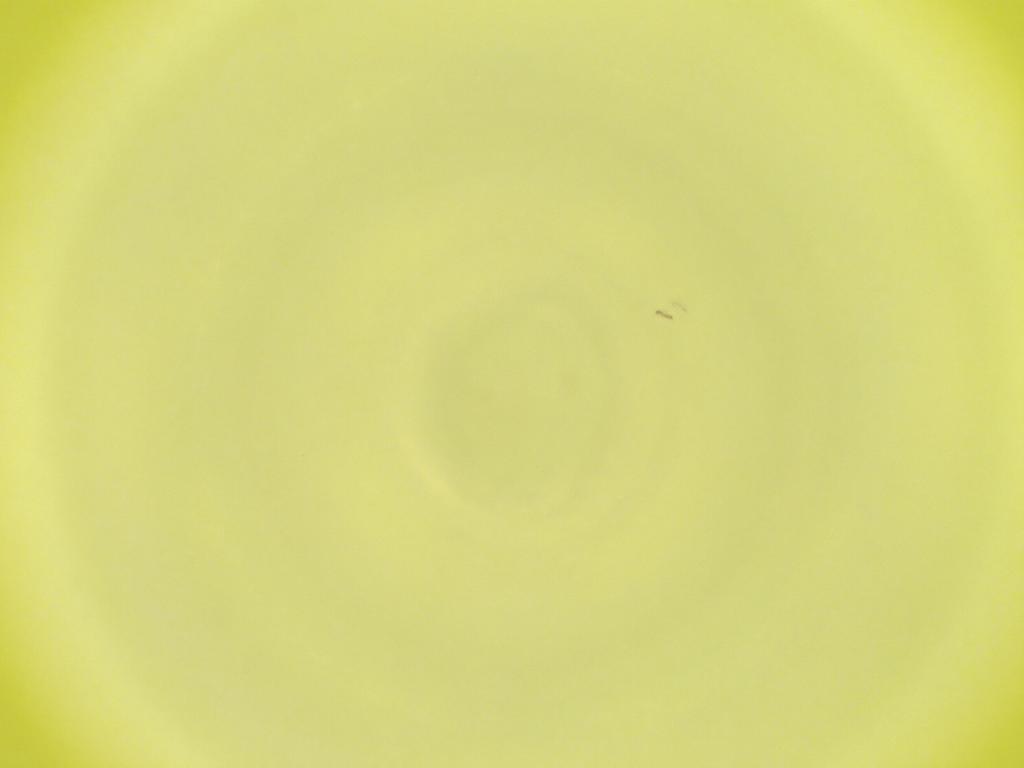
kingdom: Animalia
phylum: Arthropoda
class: Insecta
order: Diptera
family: Cecidomyiidae
